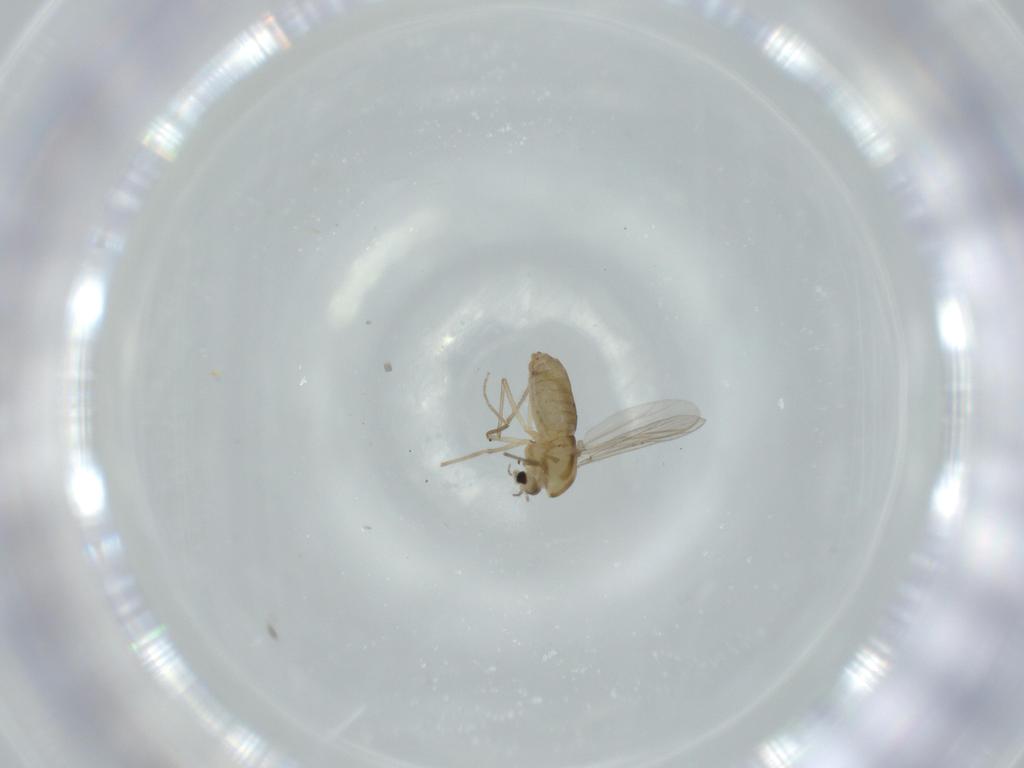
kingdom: Animalia
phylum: Arthropoda
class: Insecta
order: Diptera
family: Chironomidae
